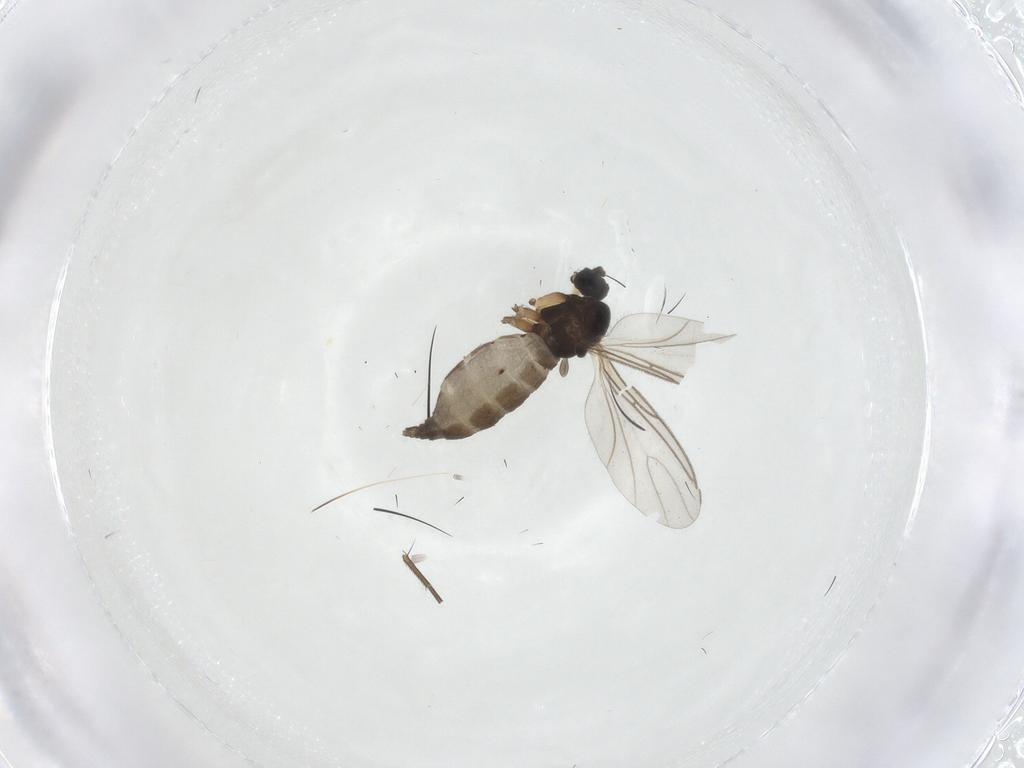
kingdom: Animalia
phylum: Arthropoda
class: Insecta
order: Diptera
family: Sciaridae
